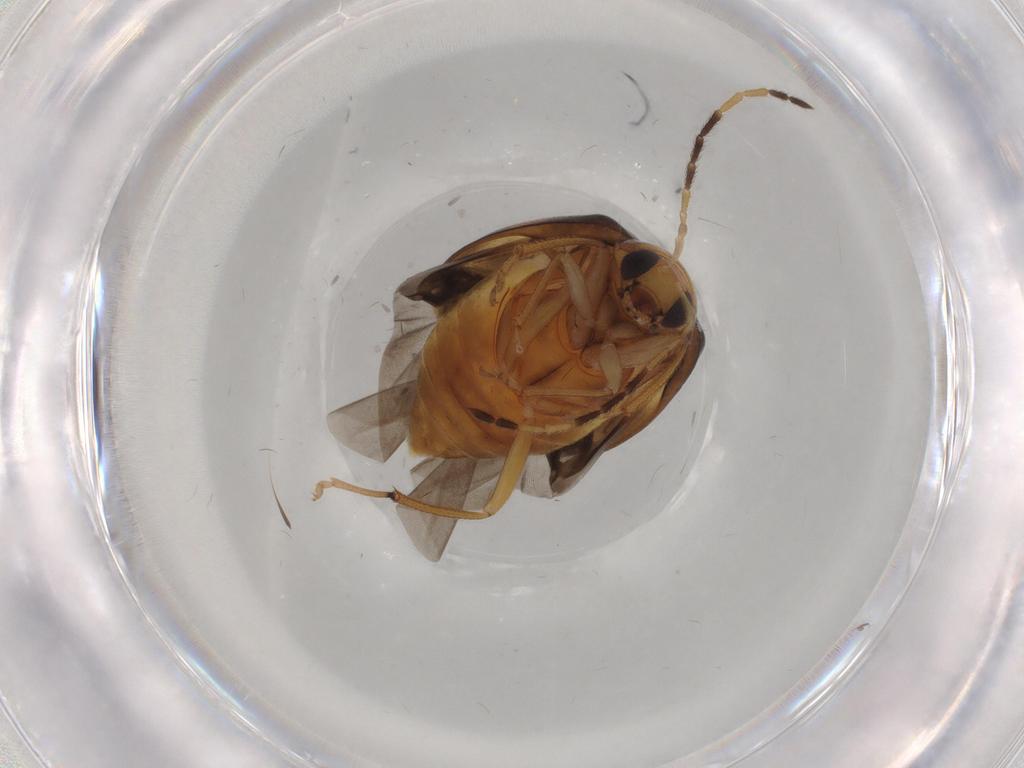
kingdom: Animalia
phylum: Arthropoda
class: Insecta
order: Coleoptera
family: Chrysomelidae
